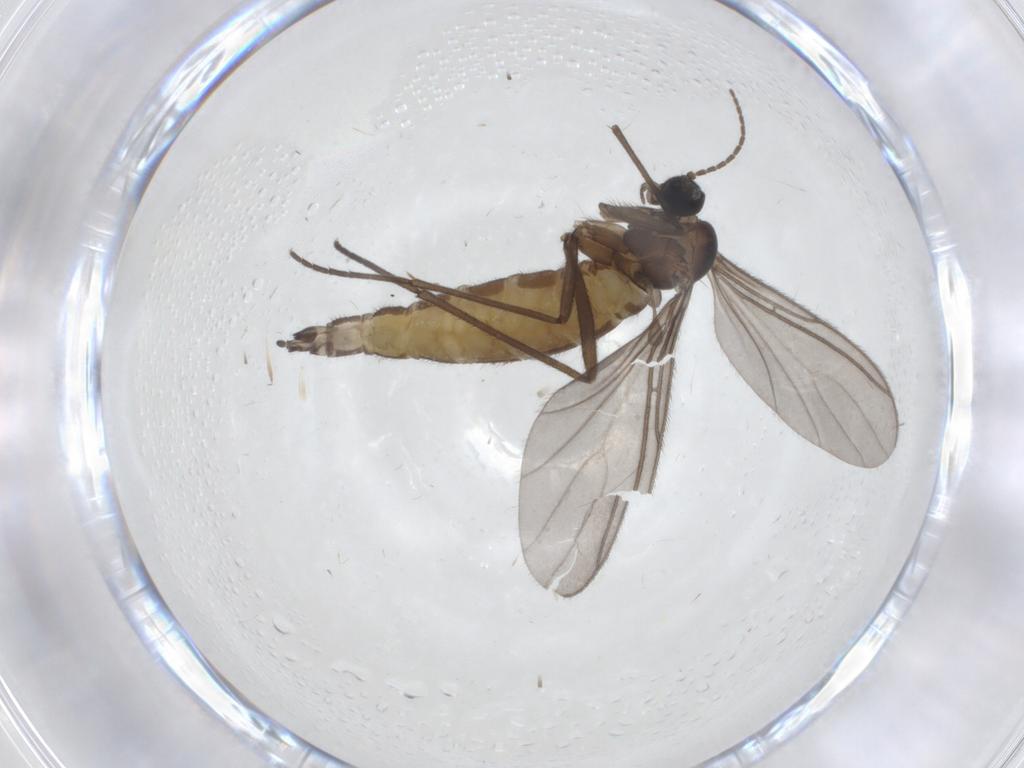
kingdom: Animalia
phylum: Arthropoda
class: Insecta
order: Diptera
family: Sciaridae
